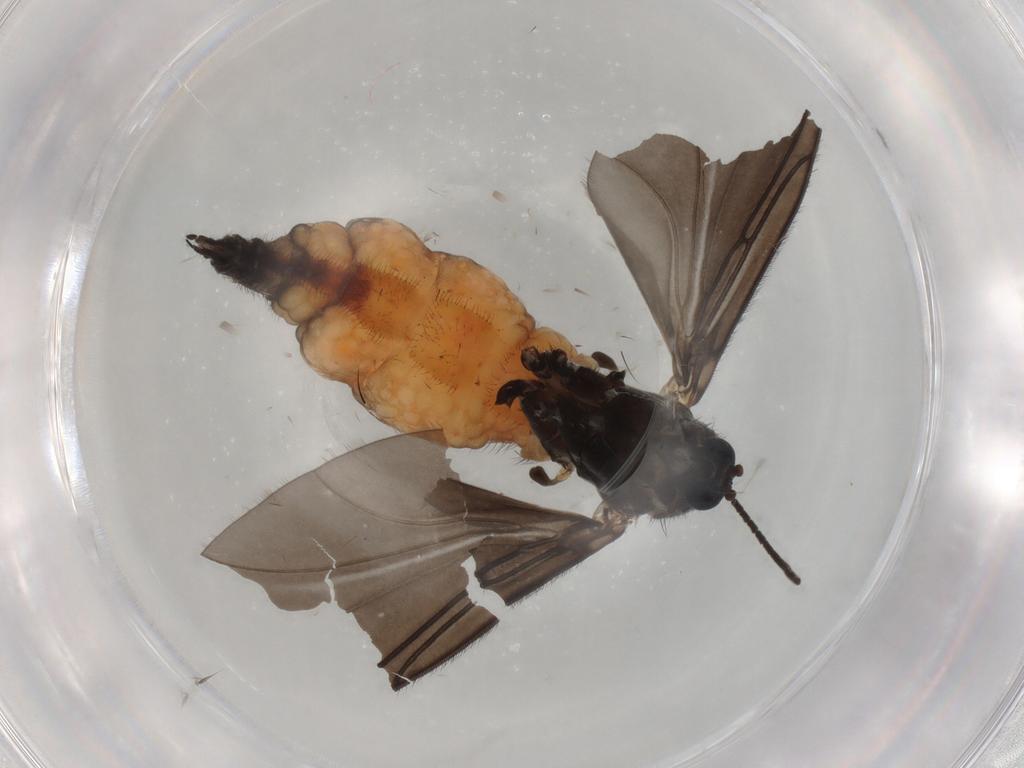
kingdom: Animalia
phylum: Arthropoda
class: Insecta
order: Diptera
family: Sciaridae
